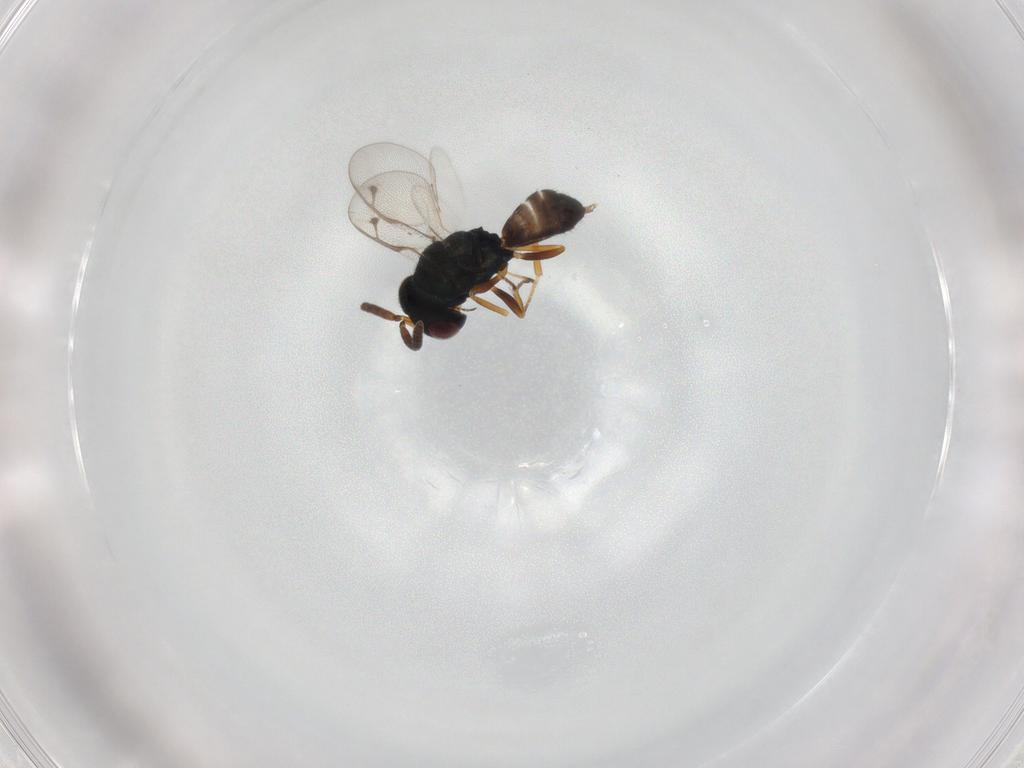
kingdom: Animalia
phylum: Arthropoda
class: Insecta
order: Hymenoptera
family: Pteromalidae
